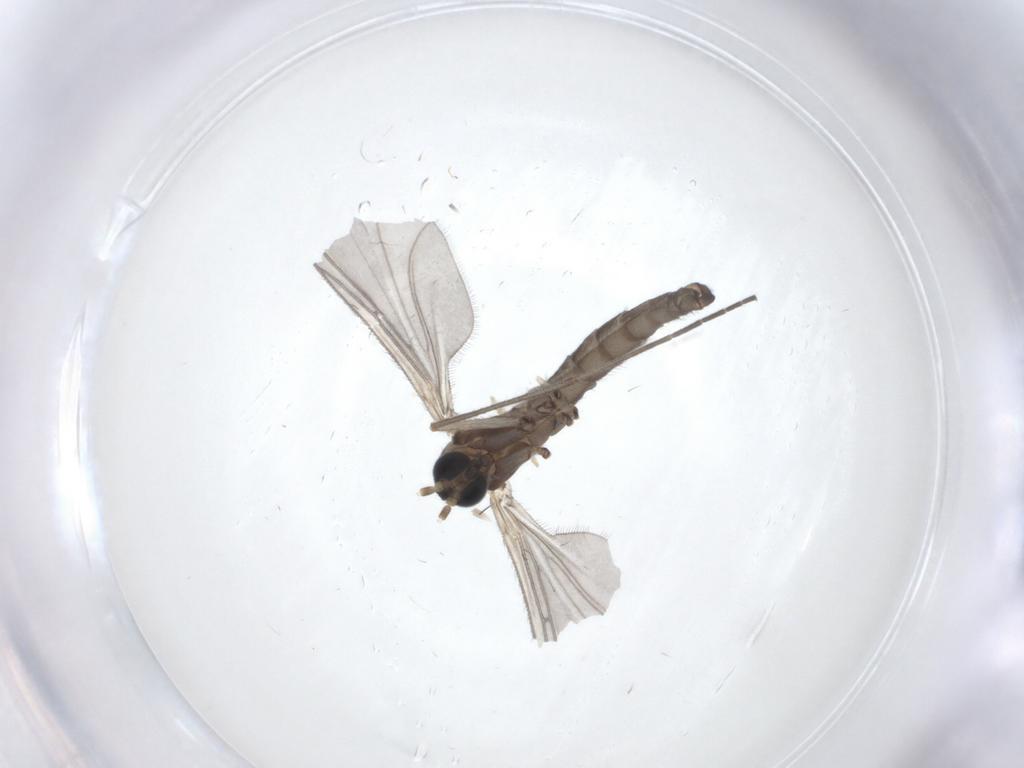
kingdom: Animalia
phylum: Arthropoda
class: Insecta
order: Diptera
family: Sciaridae
